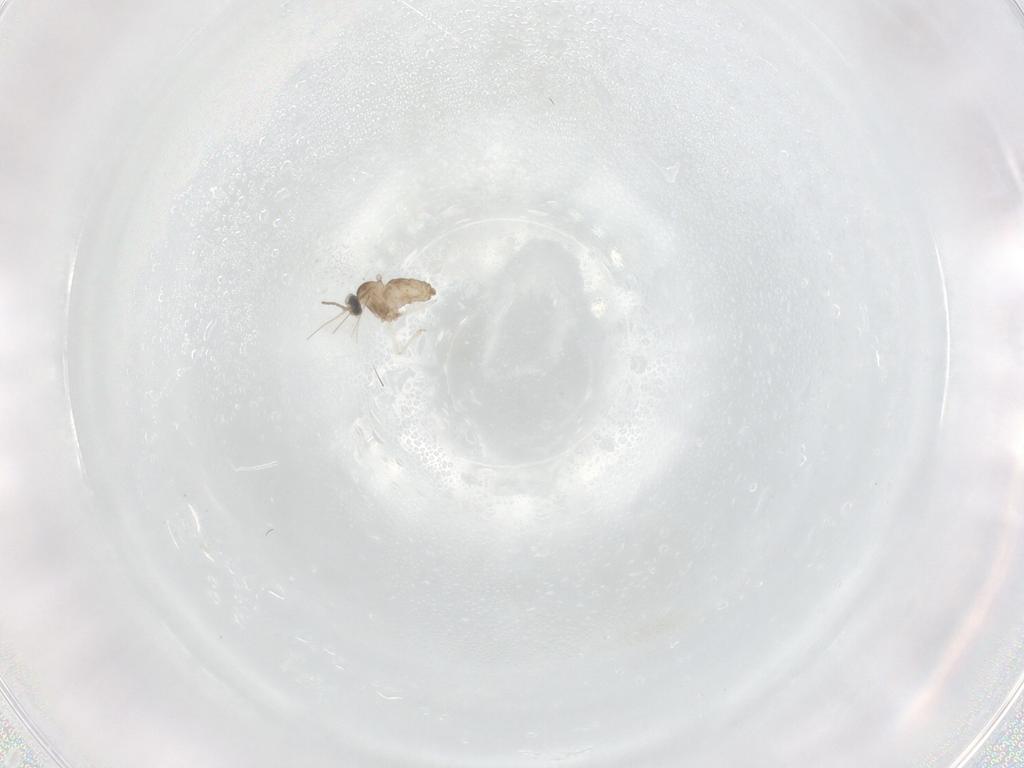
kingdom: Animalia
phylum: Arthropoda
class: Insecta
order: Diptera
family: Cecidomyiidae
